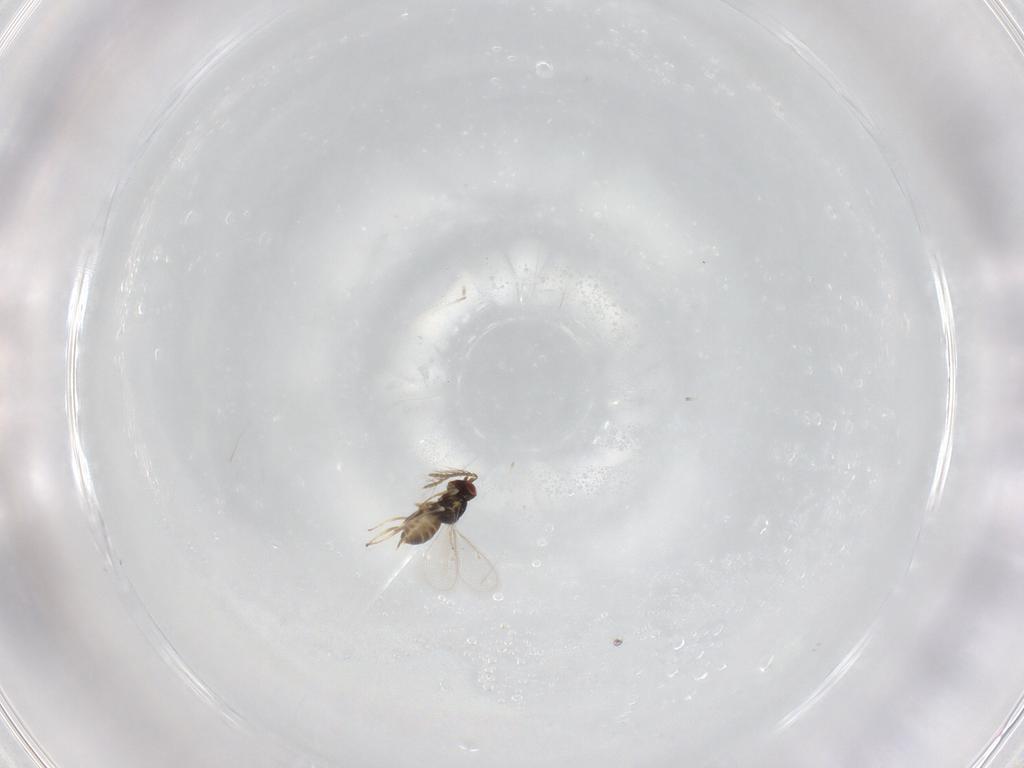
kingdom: Animalia
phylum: Arthropoda
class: Insecta
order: Hymenoptera
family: Eulophidae
